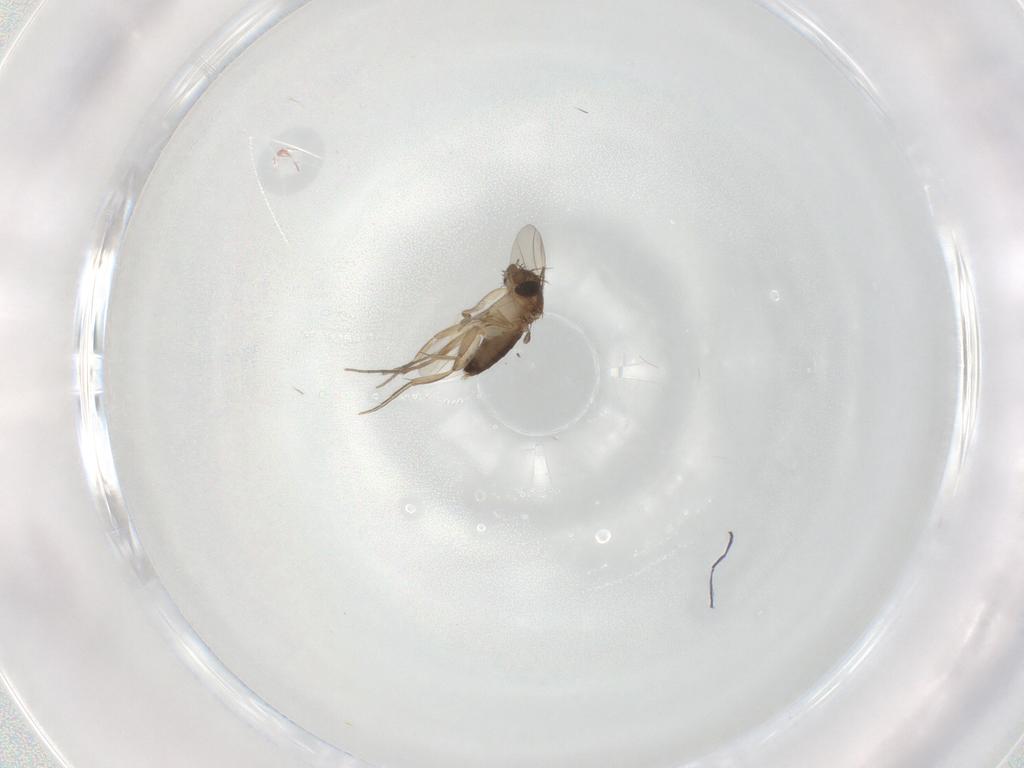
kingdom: Animalia
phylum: Arthropoda
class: Insecta
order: Diptera
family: Phoridae
